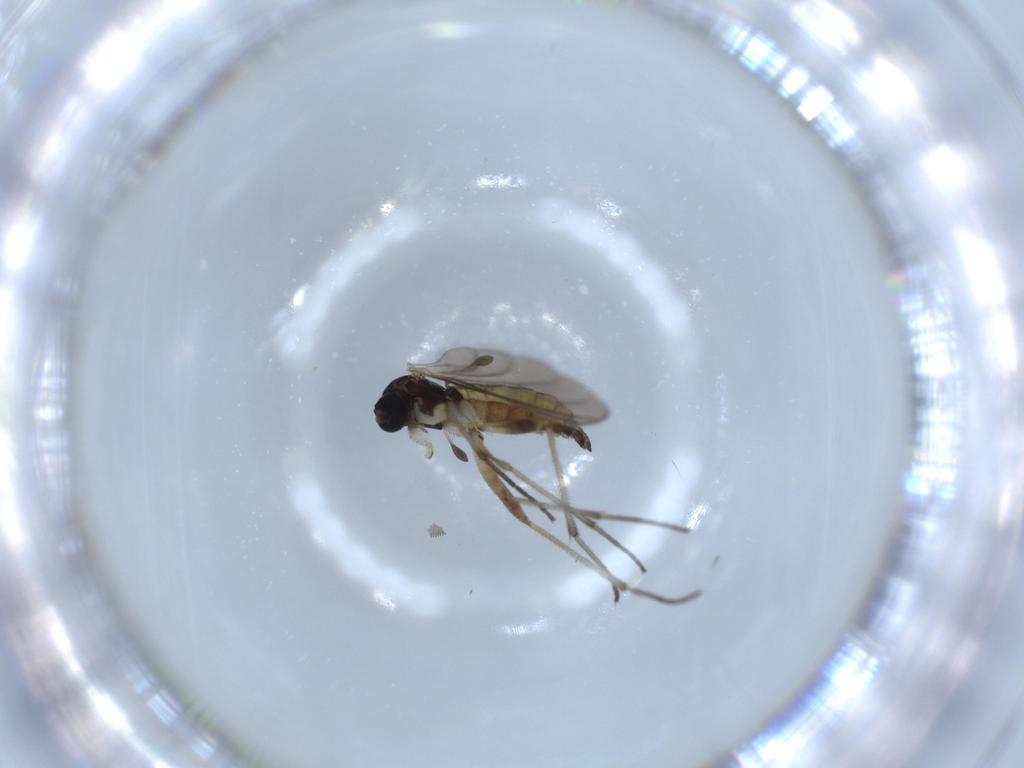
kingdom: Animalia
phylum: Arthropoda
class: Insecta
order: Diptera
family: Sciaridae
